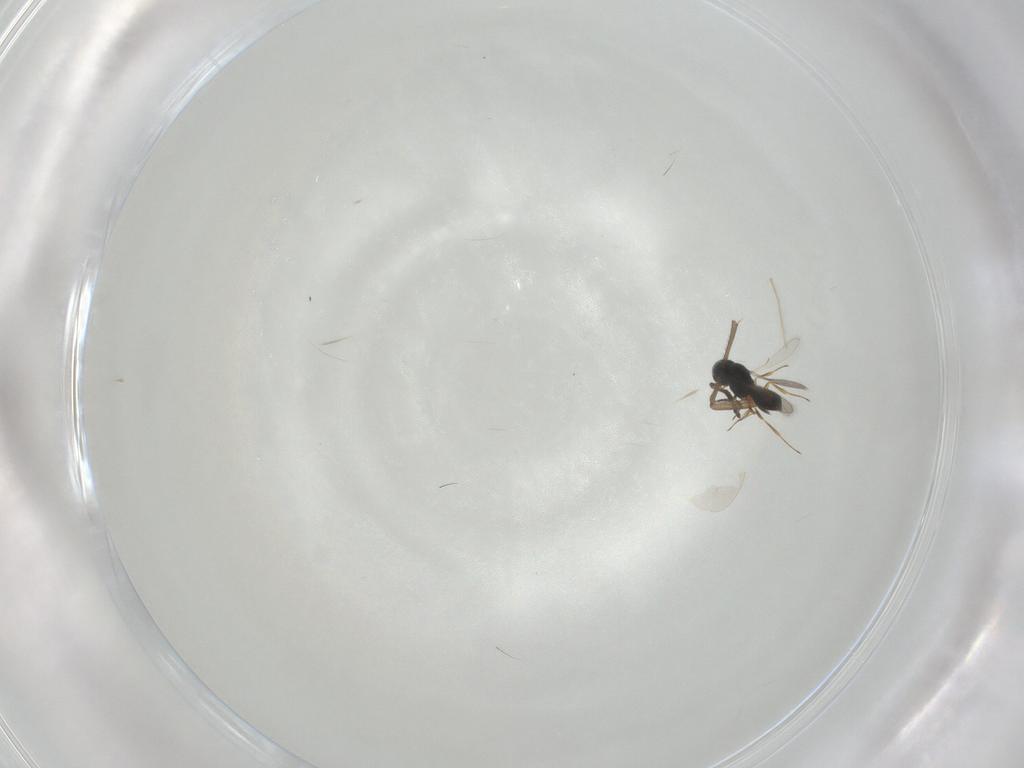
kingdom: Animalia
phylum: Arthropoda
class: Insecta
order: Hymenoptera
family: Scelionidae
